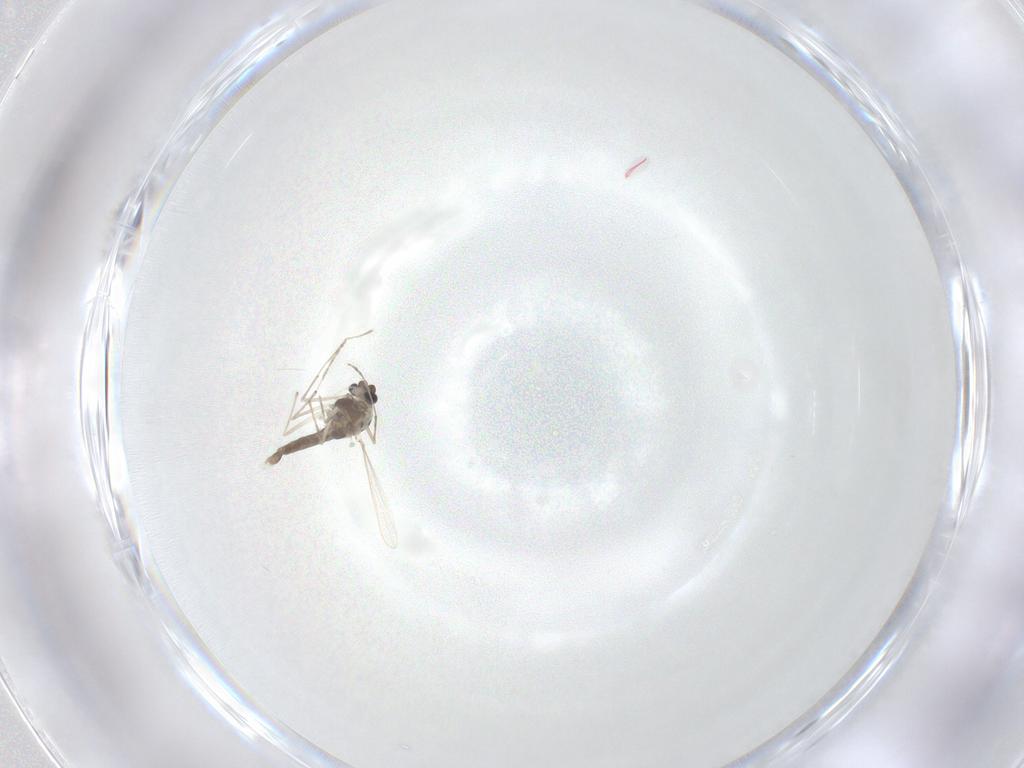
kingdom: Animalia
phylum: Arthropoda
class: Insecta
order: Diptera
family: Chironomidae
